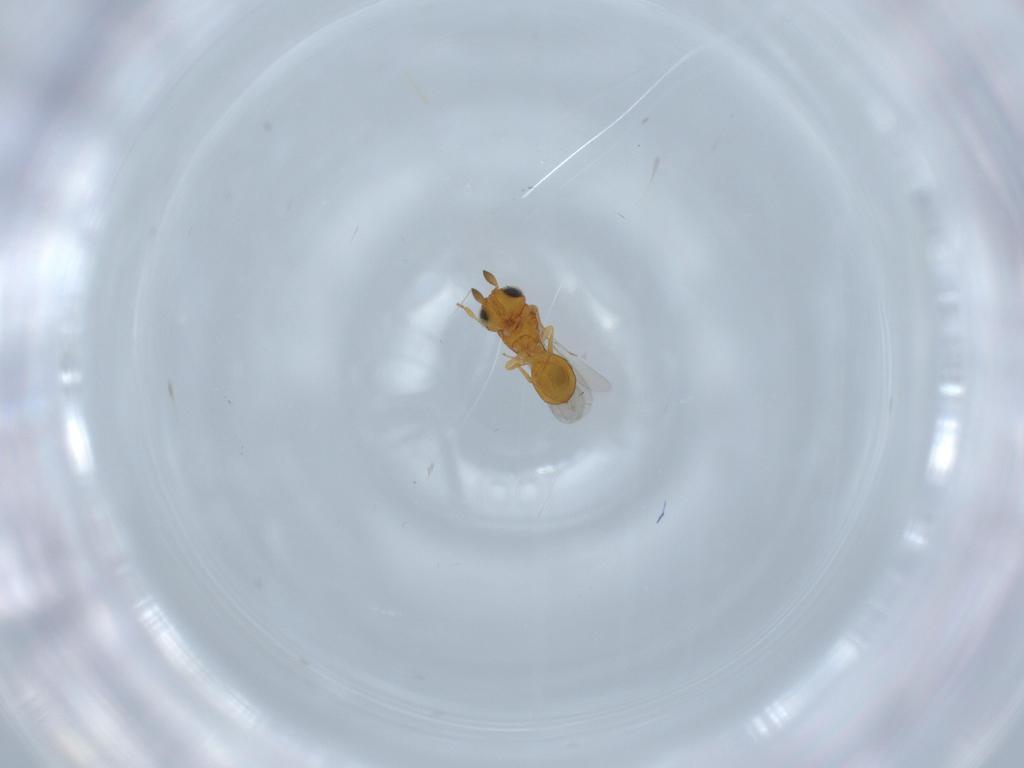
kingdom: Animalia
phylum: Arthropoda
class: Insecta
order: Hymenoptera
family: Scelionidae
